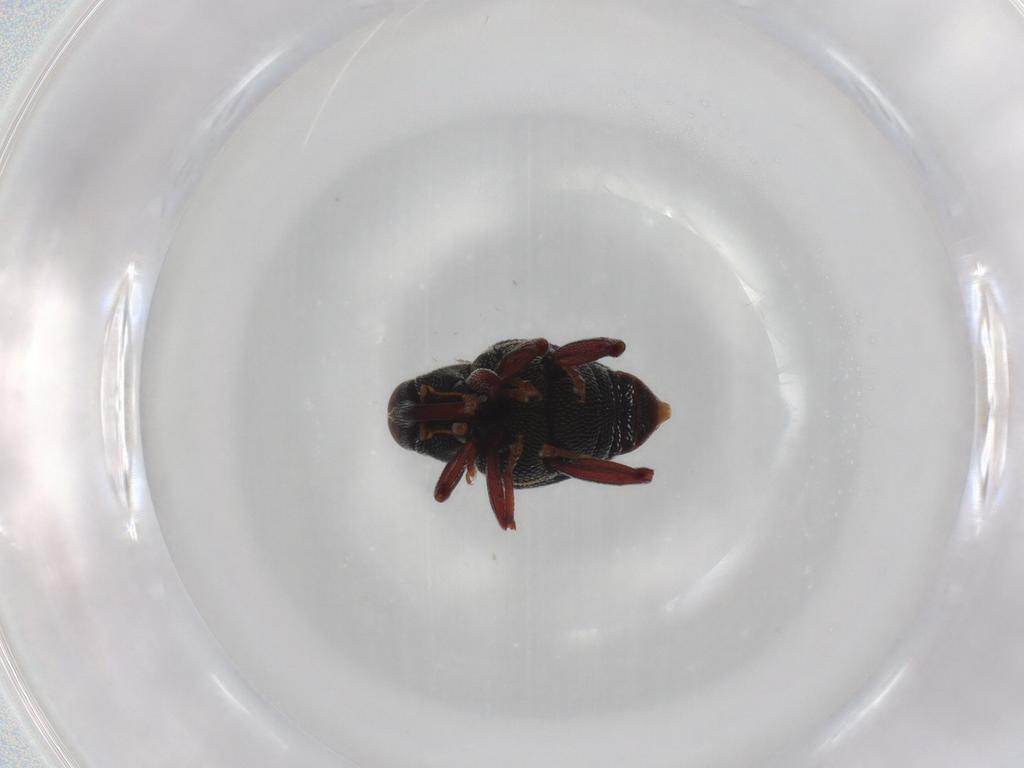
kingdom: Animalia
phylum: Arthropoda
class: Insecta
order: Coleoptera
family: Curculionidae
